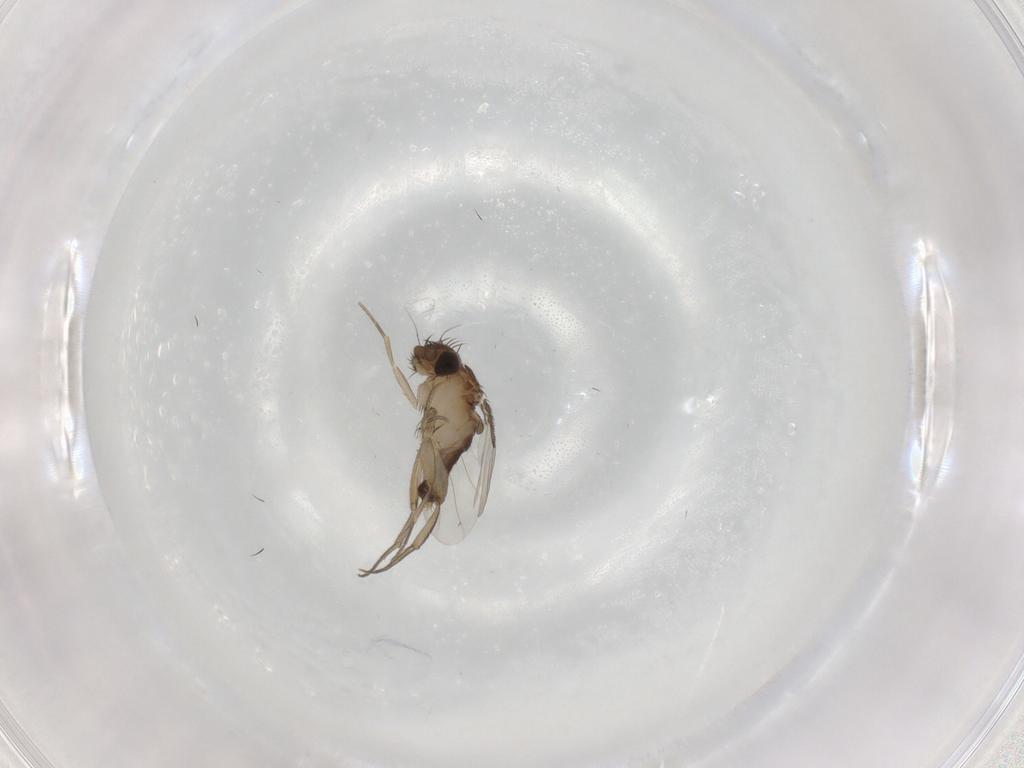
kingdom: Animalia
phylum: Arthropoda
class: Insecta
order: Diptera
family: Phoridae
